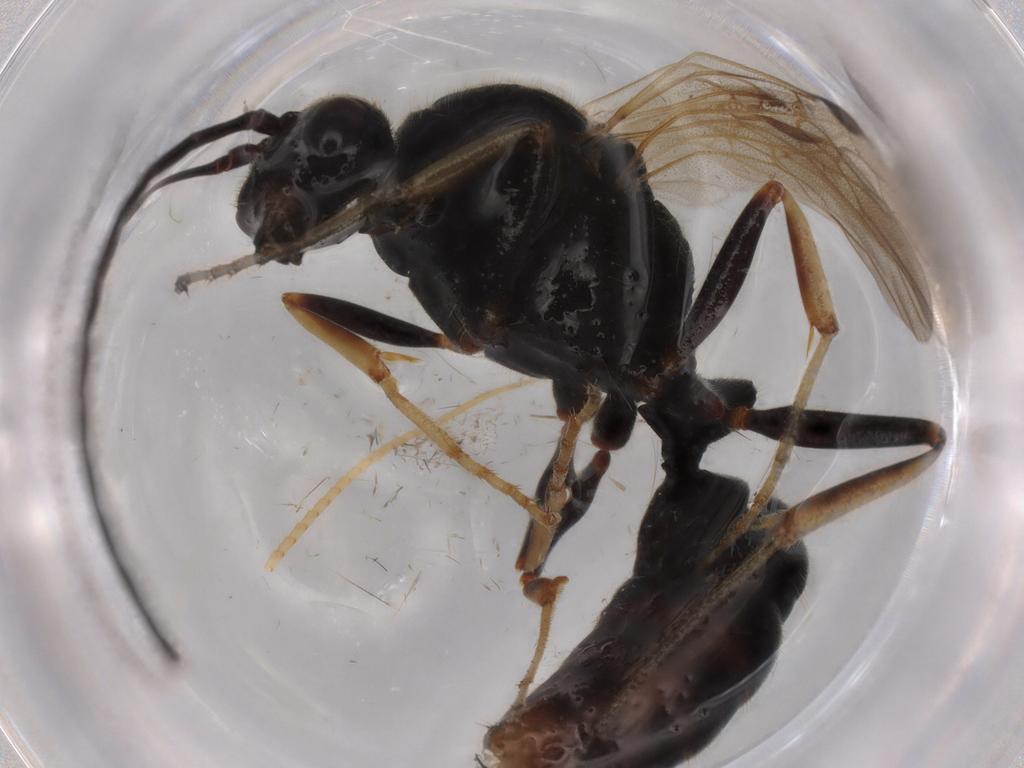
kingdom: Animalia
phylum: Arthropoda
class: Insecta
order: Hymenoptera
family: Formicidae
